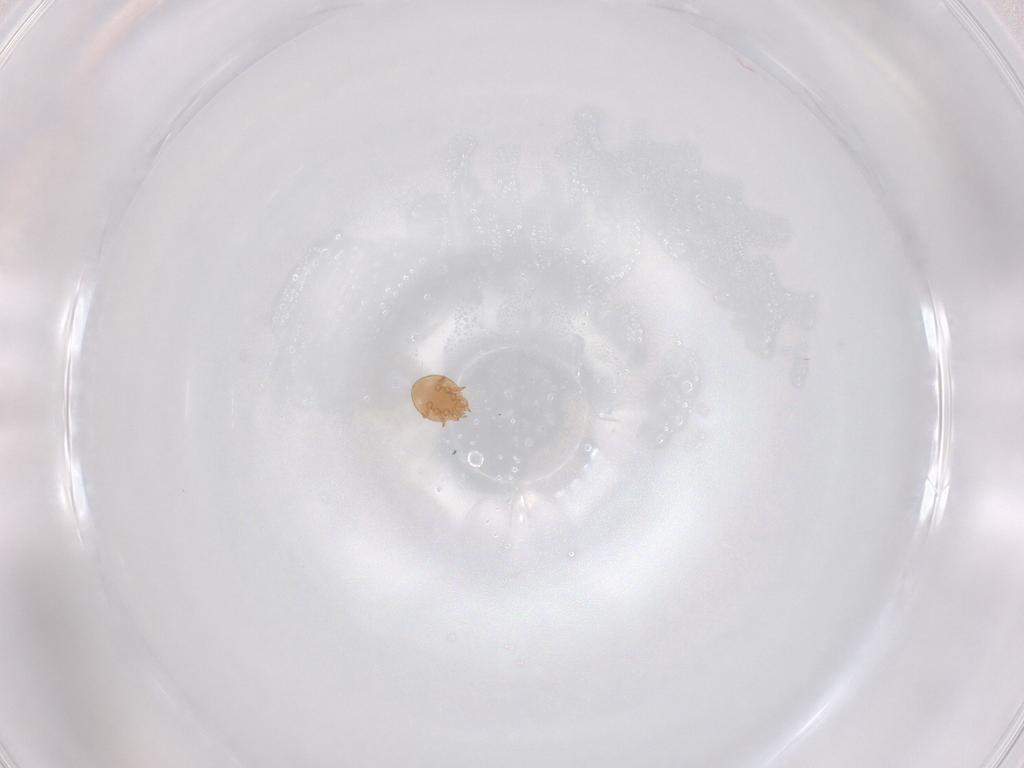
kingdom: Animalia
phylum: Arthropoda
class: Arachnida
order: Mesostigmata
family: Trematuridae
